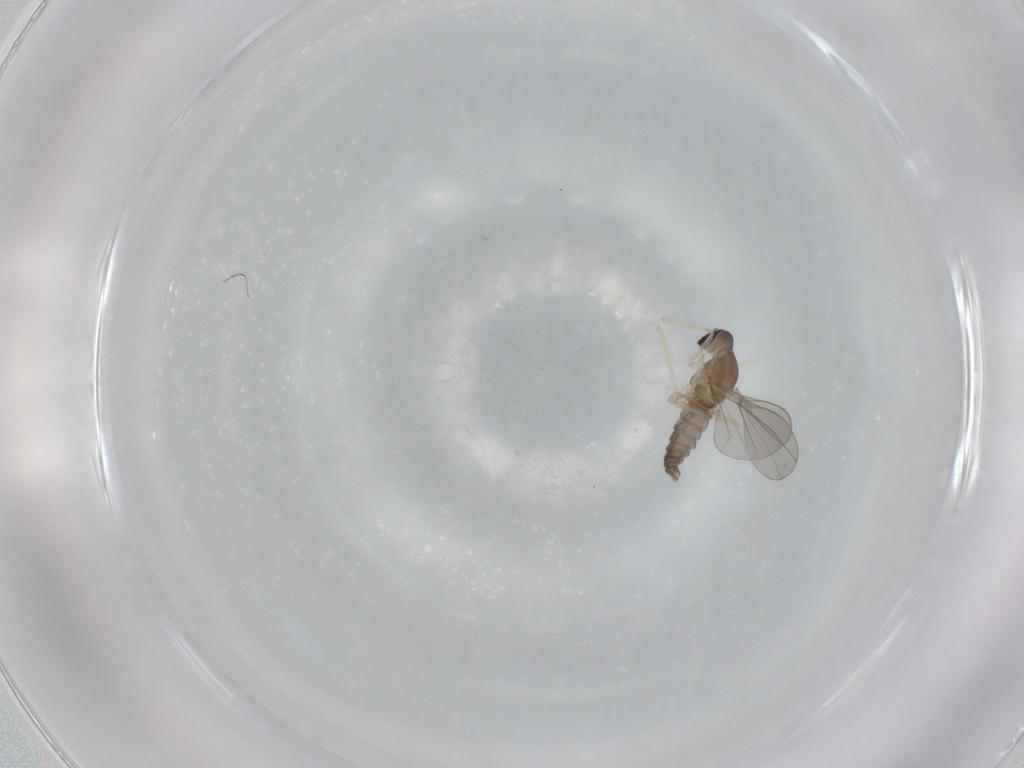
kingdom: Animalia
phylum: Arthropoda
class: Insecta
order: Diptera
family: Cecidomyiidae
